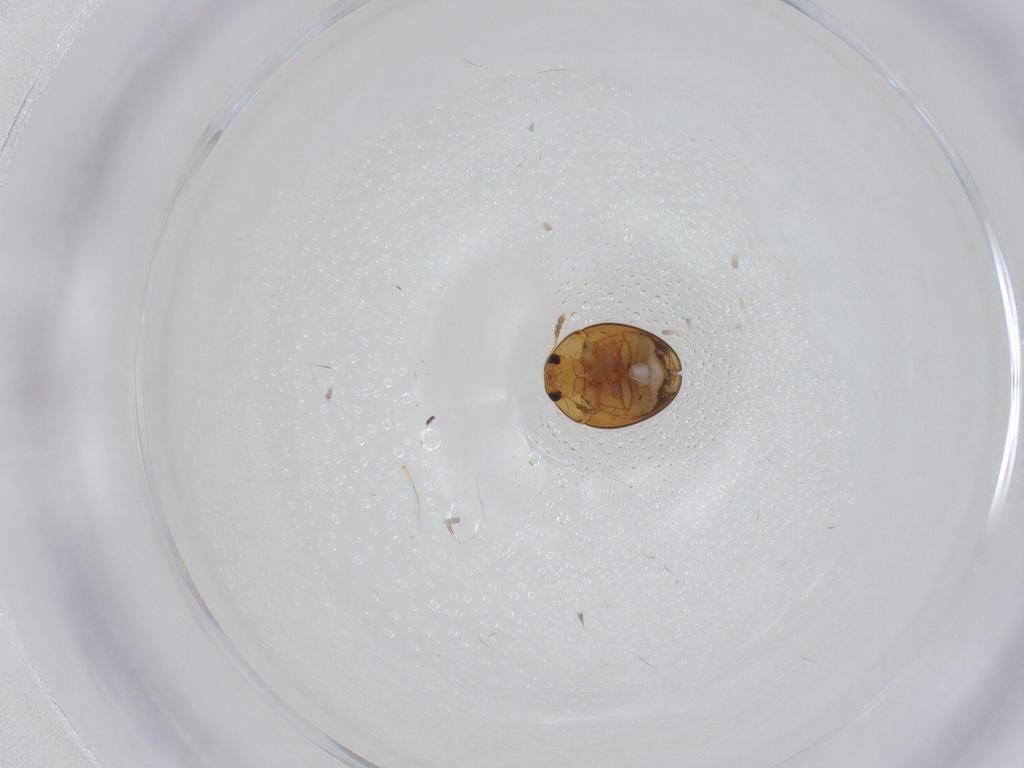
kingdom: Animalia
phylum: Arthropoda
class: Insecta
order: Coleoptera
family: Phalacridae
